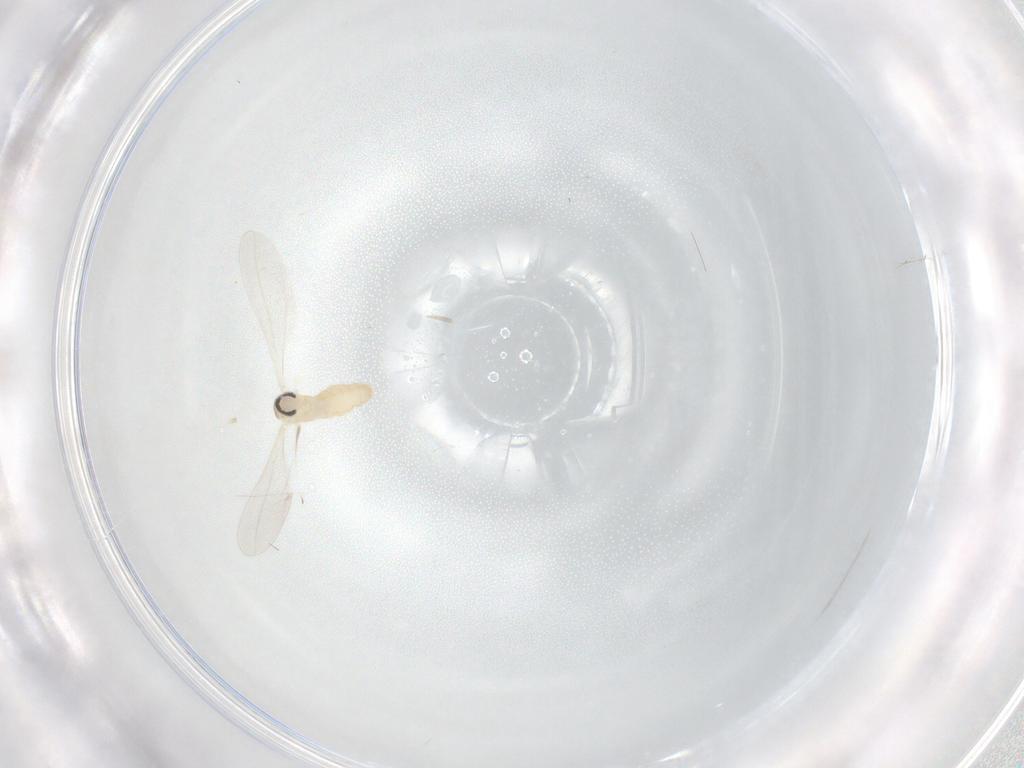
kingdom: Animalia
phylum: Arthropoda
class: Insecta
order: Diptera
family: Cecidomyiidae
